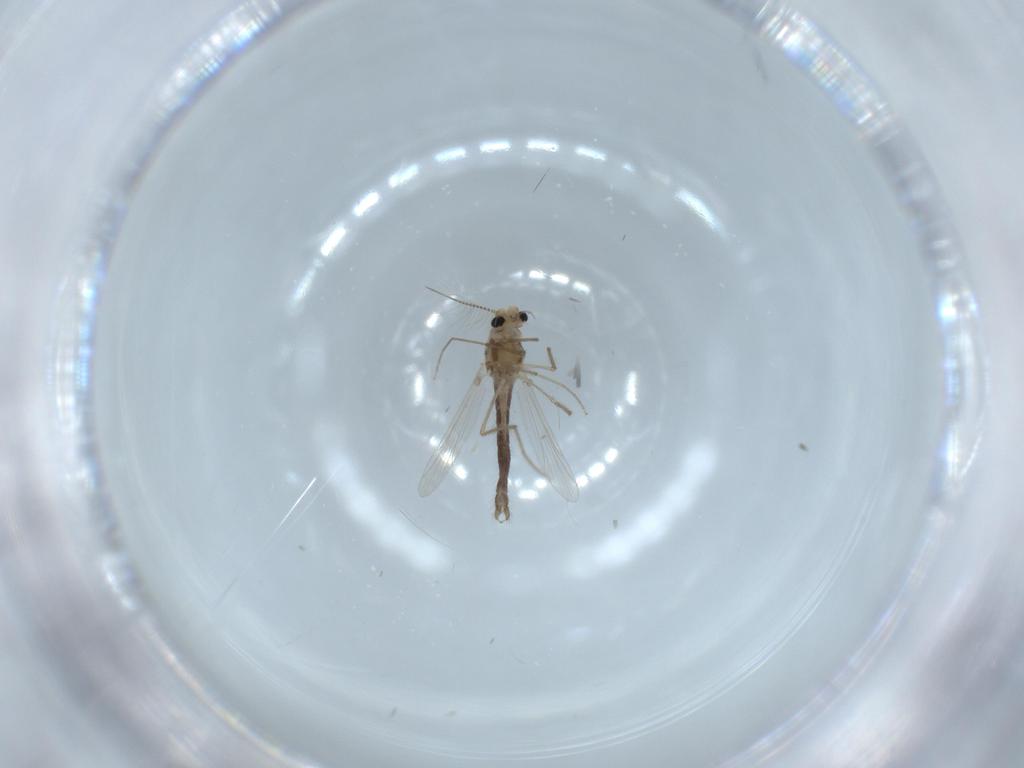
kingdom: Animalia
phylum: Arthropoda
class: Insecta
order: Diptera
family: Chironomidae
